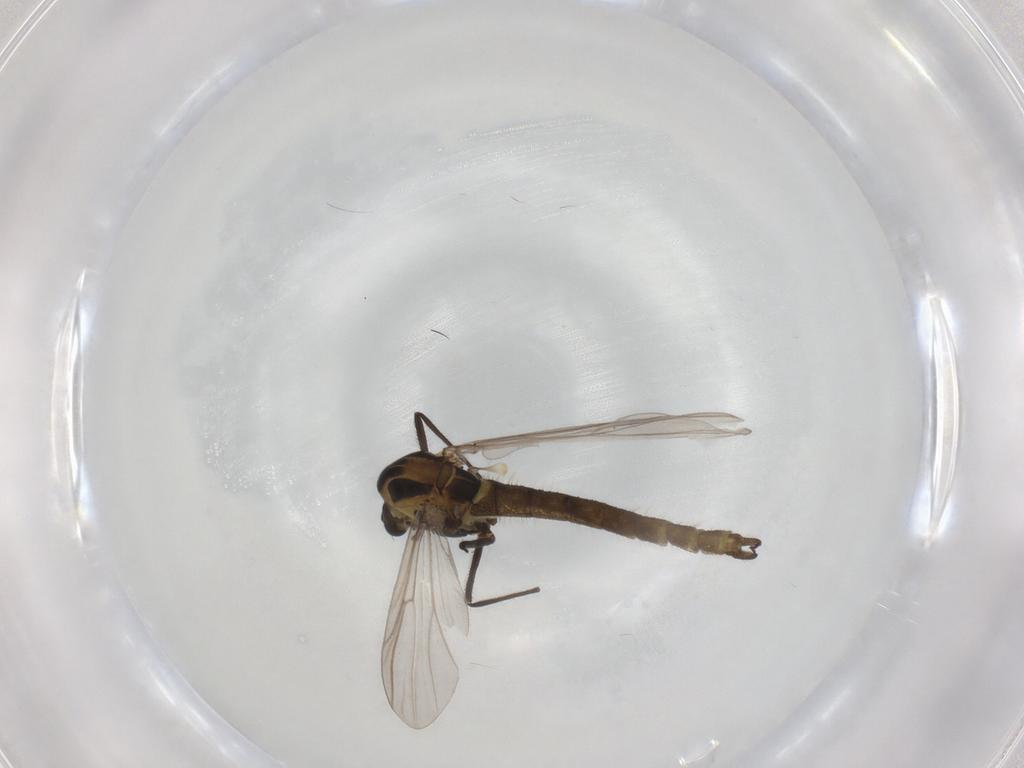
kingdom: Animalia
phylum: Arthropoda
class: Insecta
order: Diptera
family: Chironomidae
